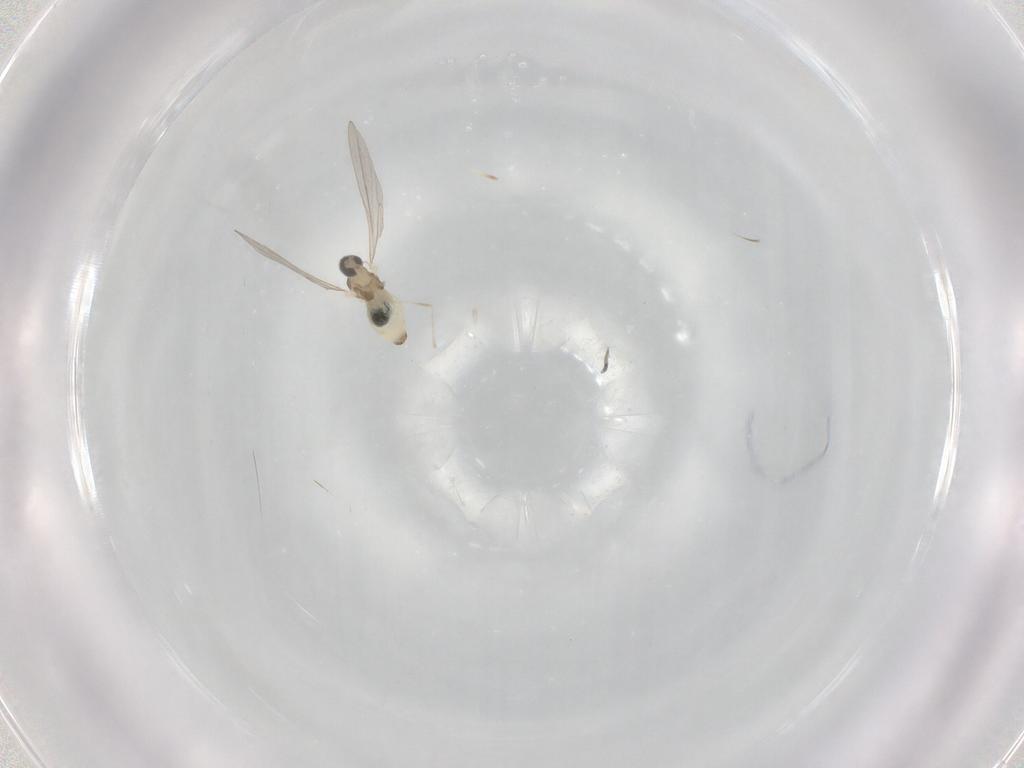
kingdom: Animalia
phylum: Arthropoda
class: Insecta
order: Diptera
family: Cecidomyiidae
